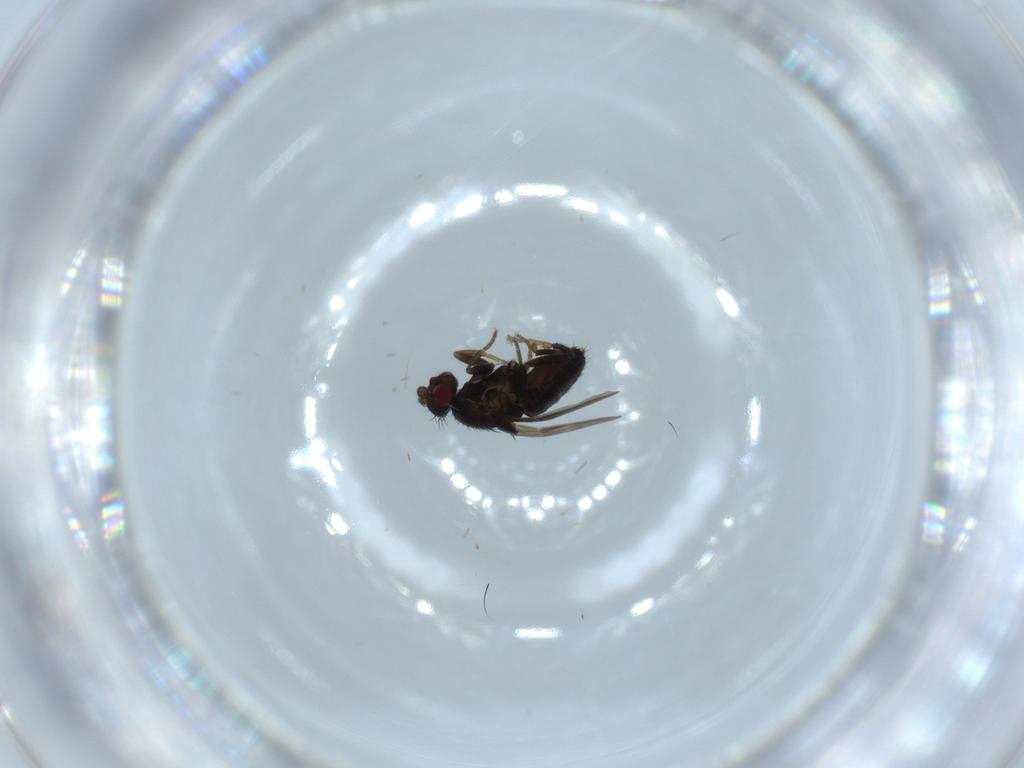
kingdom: Animalia
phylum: Arthropoda
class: Insecta
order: Diptera
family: Sphaeroceridae
